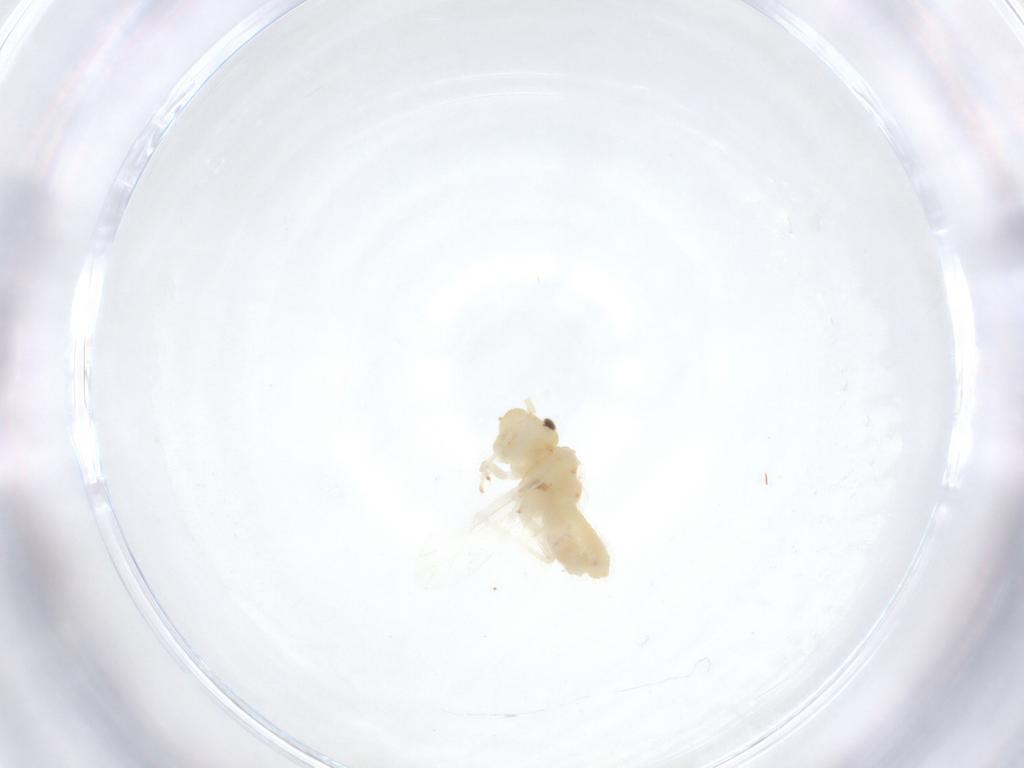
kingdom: Animalia
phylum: Arthropoda
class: Insecta
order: Psocodea
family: Caeciliusidae
